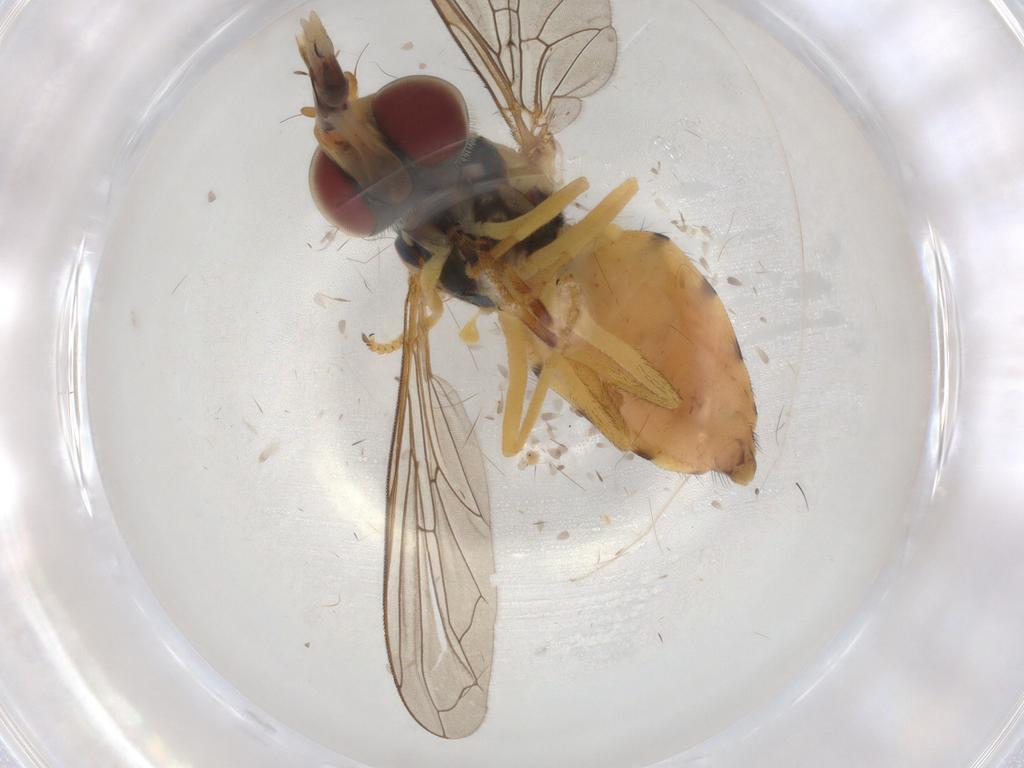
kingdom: Animalia
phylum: Arthropoda
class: Insecta
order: Diptera
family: Syrphidae
